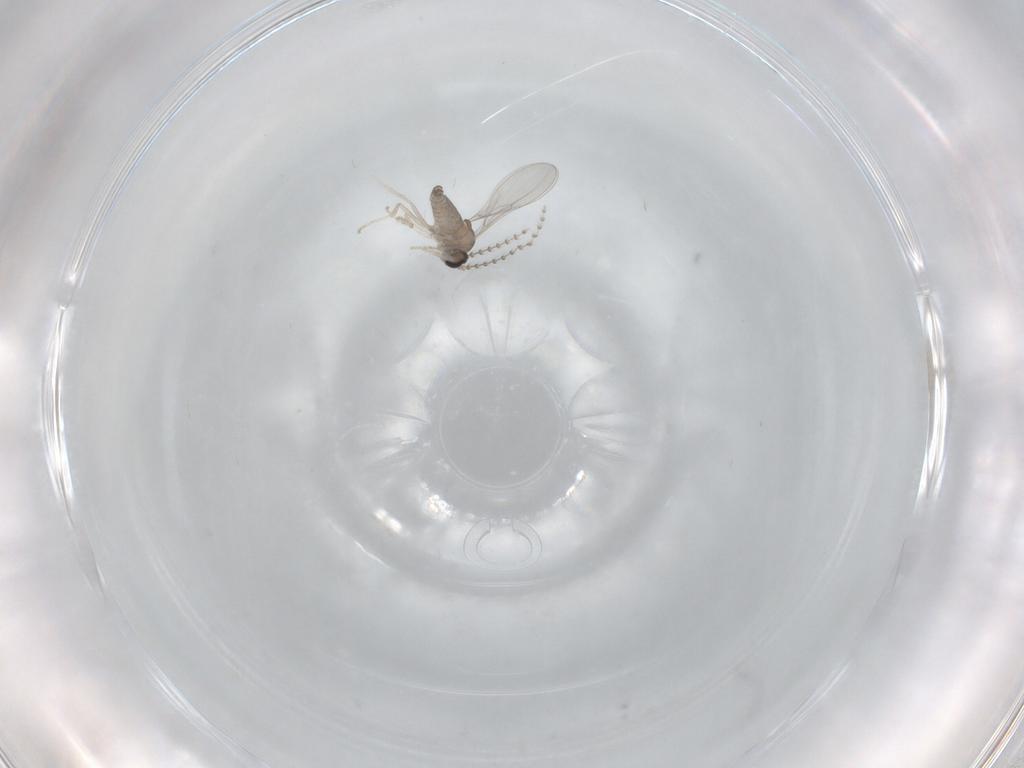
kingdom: Animalia
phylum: Arthropoda
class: Insecta
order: Diptera
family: Cecidomyiidae
